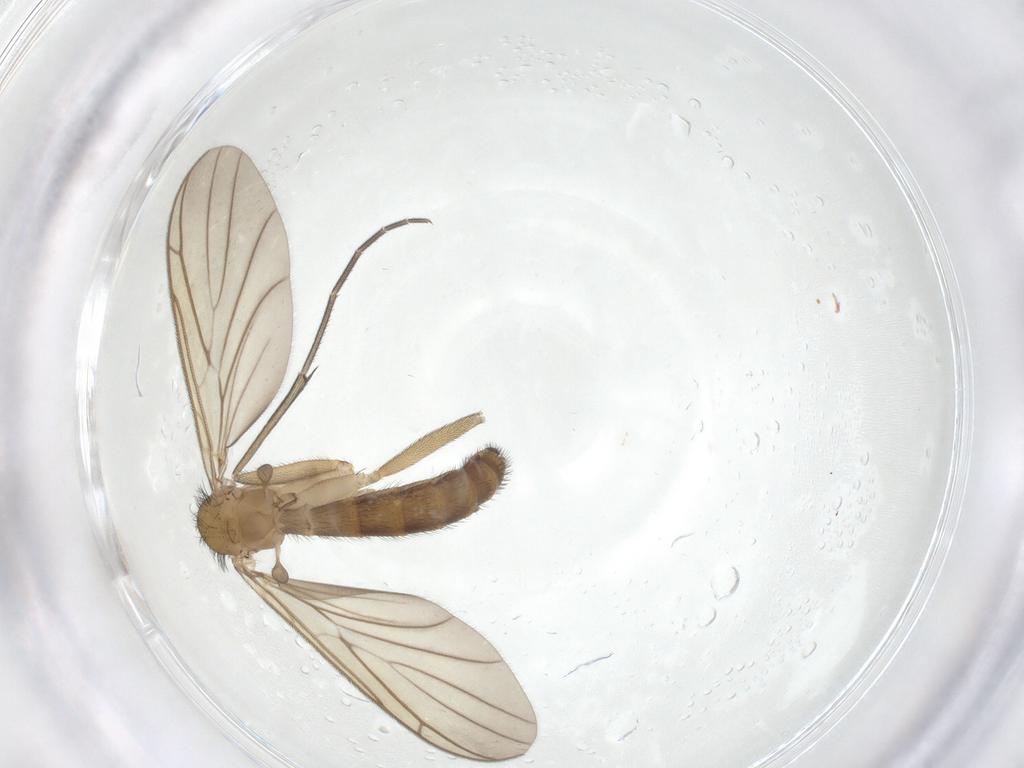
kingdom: Animalia
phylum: Arthropoda
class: Insecta
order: Diptera
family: Keroplatidae
